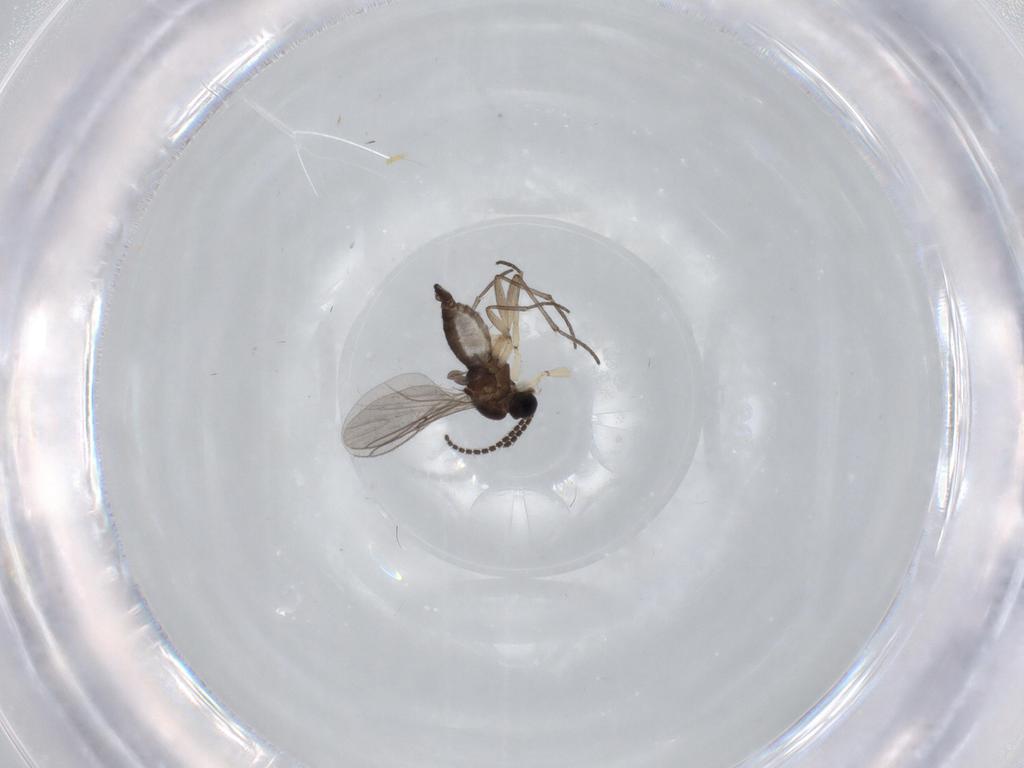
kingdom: Animalia
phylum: Arthropoda
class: Insecta
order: Diptera
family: Sciaridae
